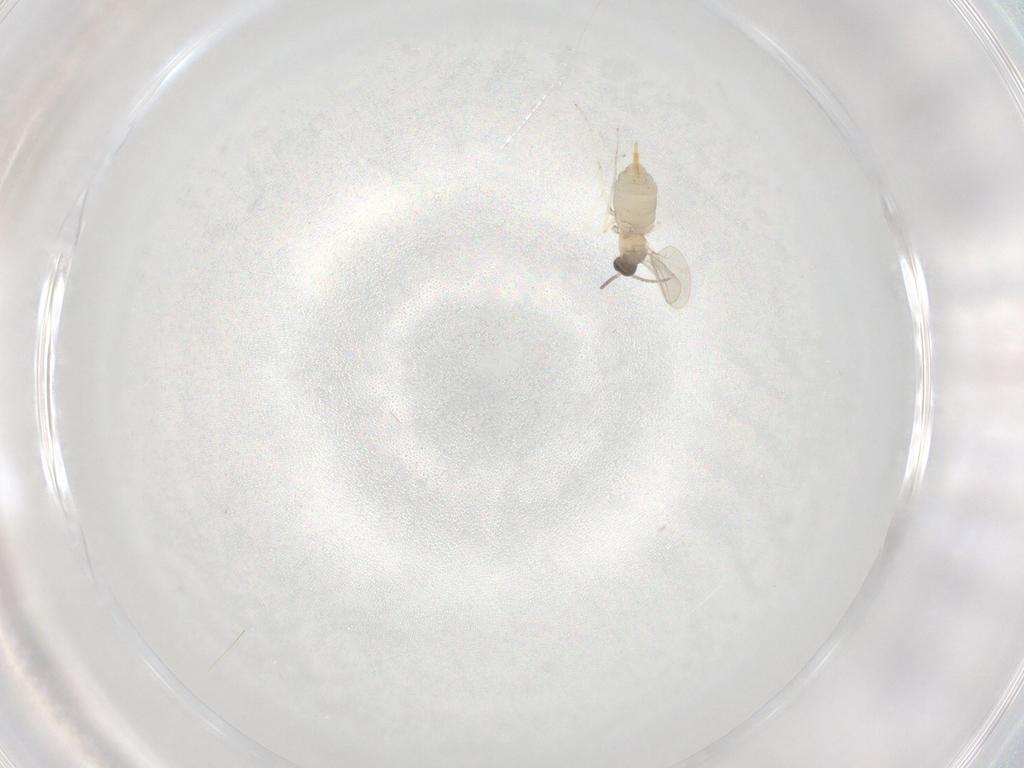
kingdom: Animalia
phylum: Arthropoda
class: Insecta
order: Diptera
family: Cecidomyiidae
